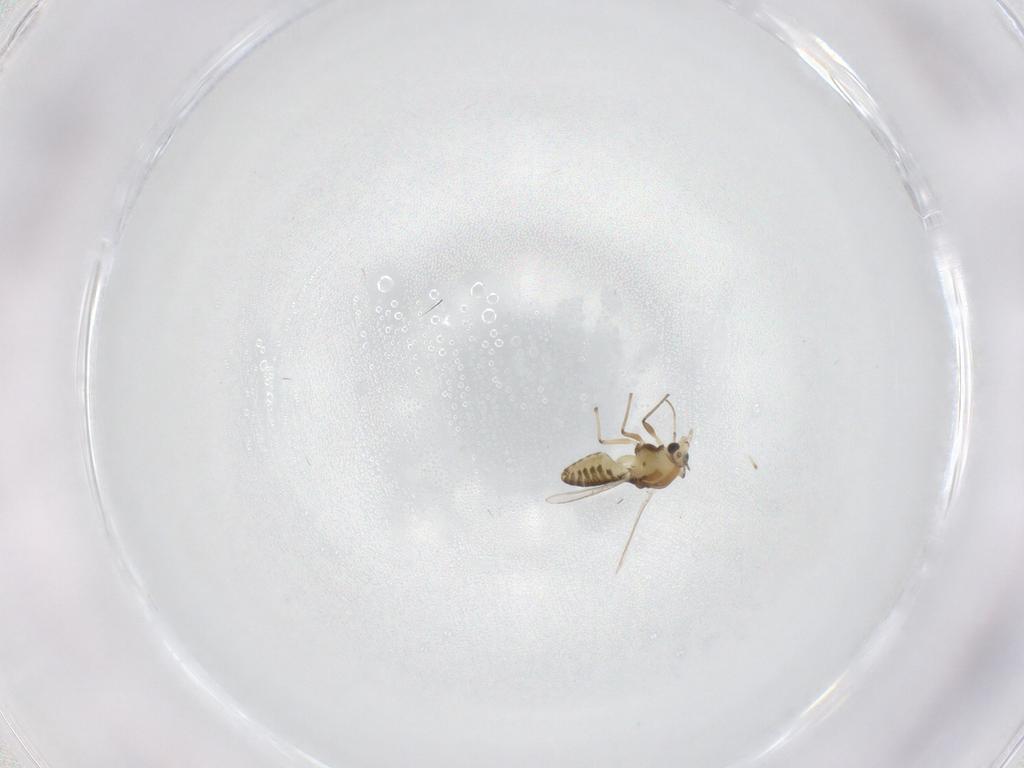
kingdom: Animalia
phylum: Arthropoda
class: Insecta
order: Diptera
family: Chironomidae
